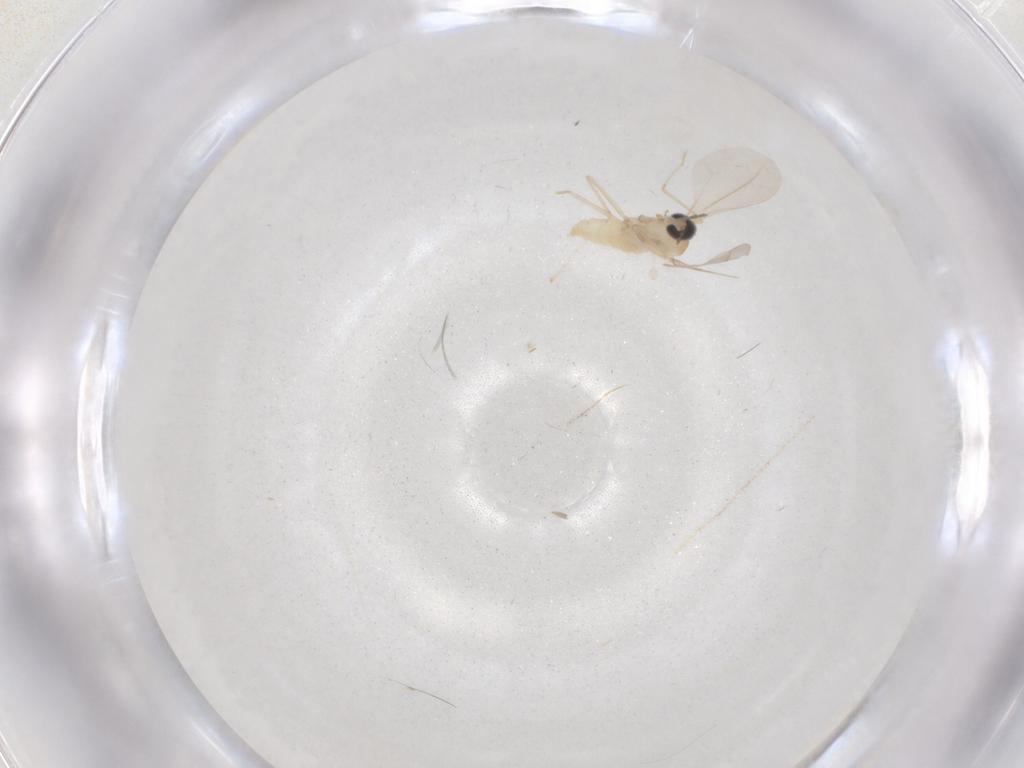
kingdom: Animalia
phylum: Arthropoda
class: Insecta
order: Diptera
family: Cecidomyiidae
